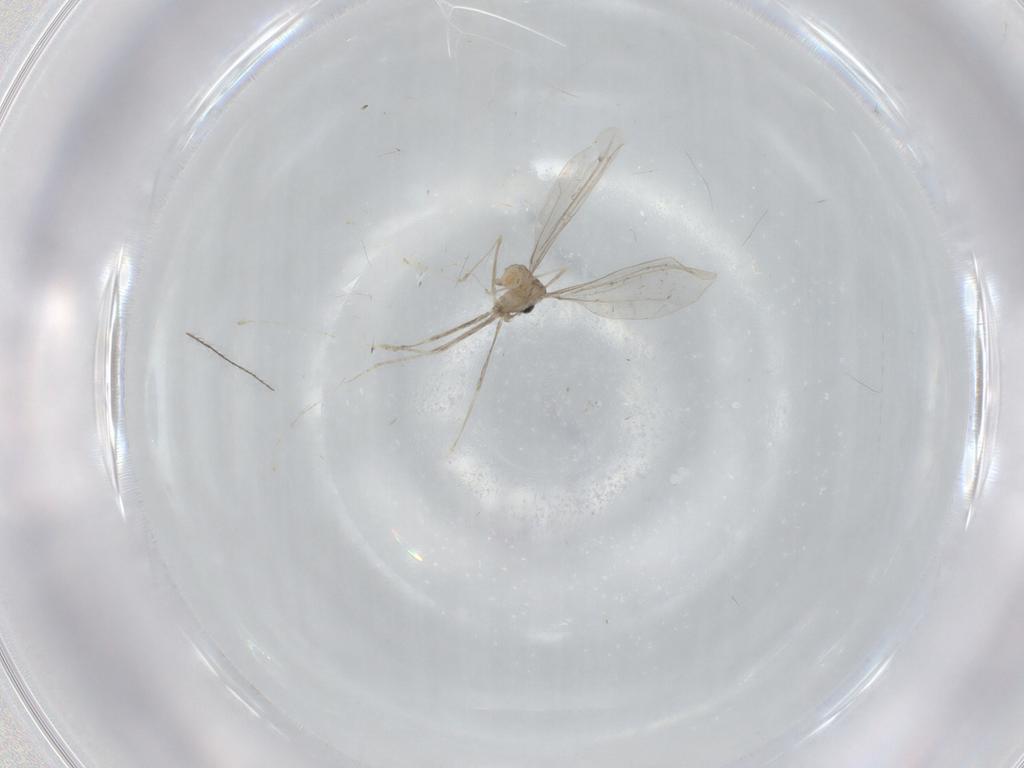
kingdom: Animalia
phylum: Arthropoda
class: Insecta
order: Diptera
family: Cecidomyiidae
